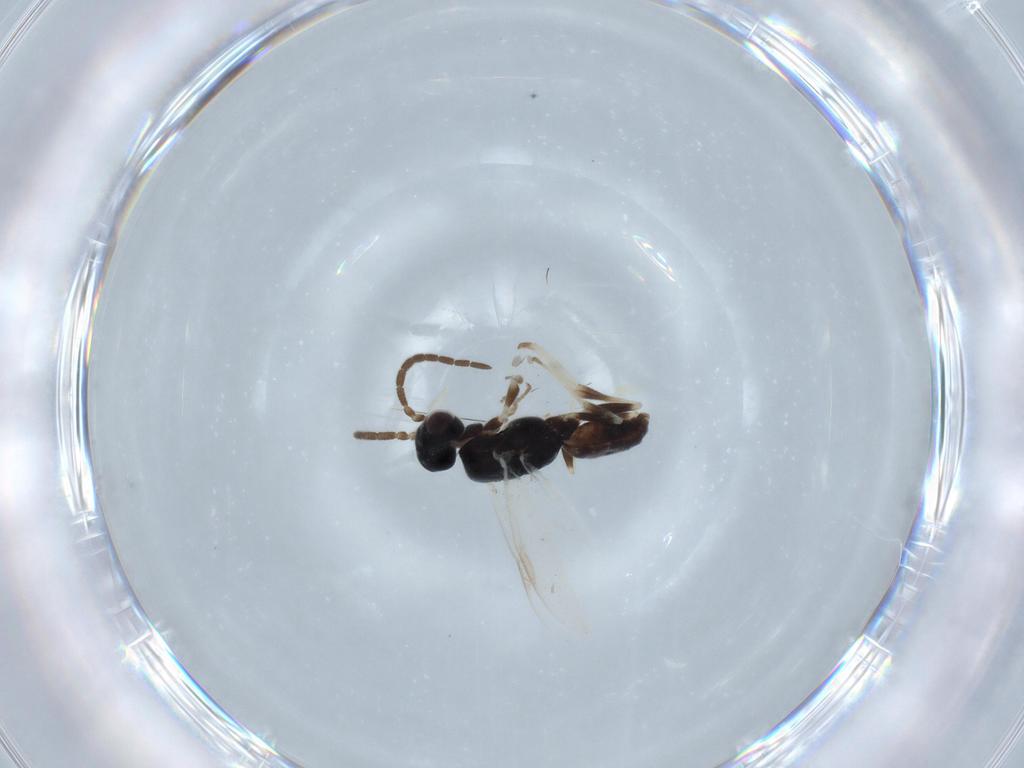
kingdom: Animalia
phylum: Arthropoda
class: Insecta
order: Hymenoptera
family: Dryinidae
